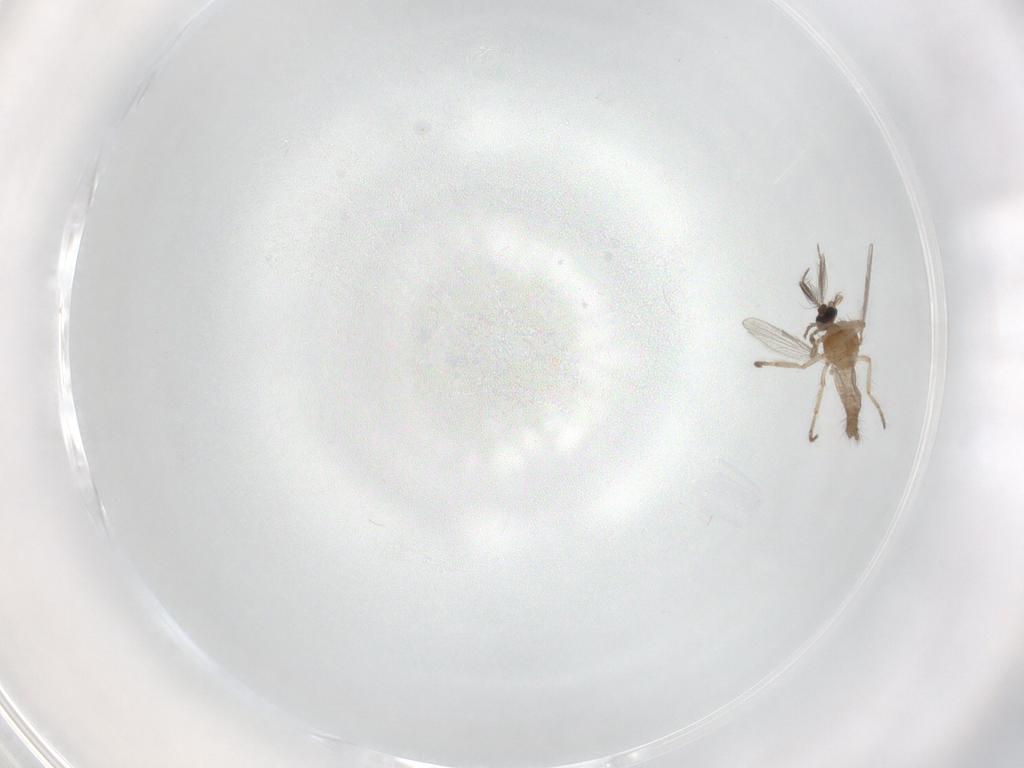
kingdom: Animalia
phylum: Arthropoda
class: Insecta
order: Diptera
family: Ceratopogonidae
